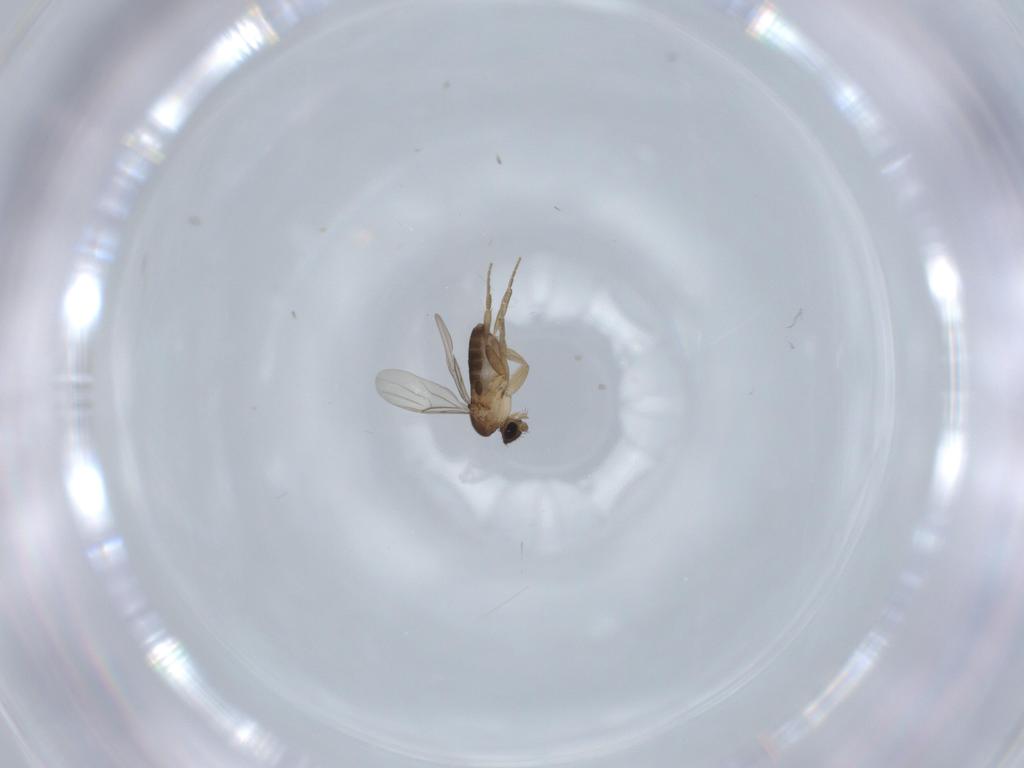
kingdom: Animalia
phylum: Arthropoda
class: Insecta
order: Diptera
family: Phoridae
